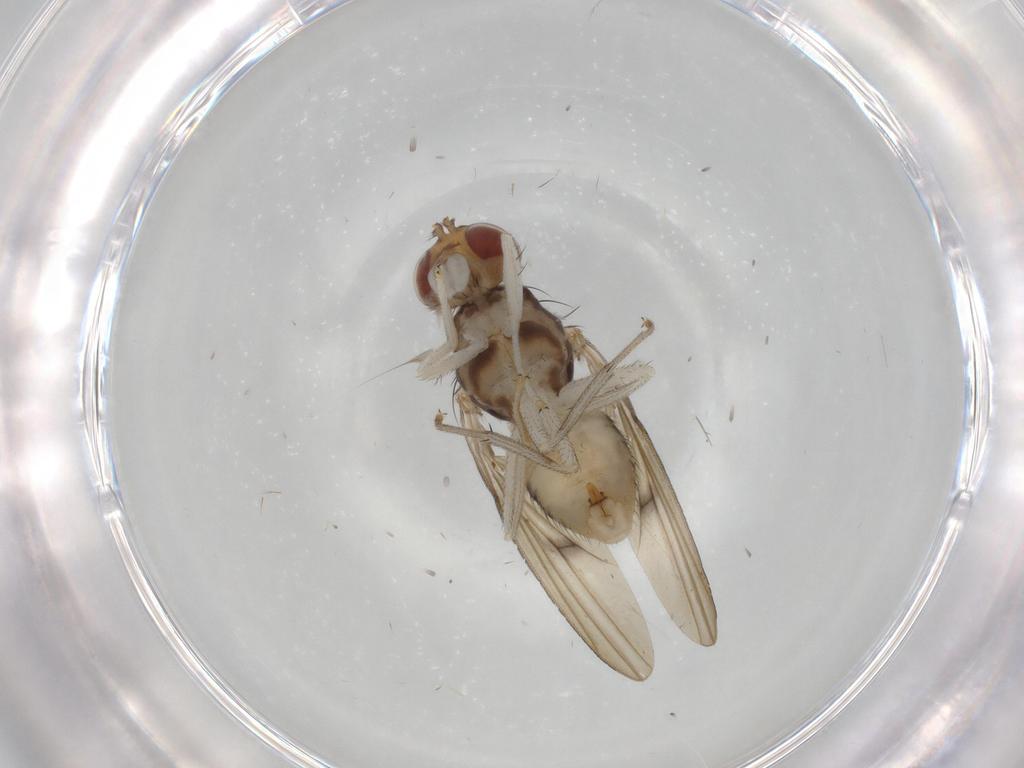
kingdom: Animalia
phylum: Arthropoda
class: Insecta
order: Diptera
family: Lauxaniidae
